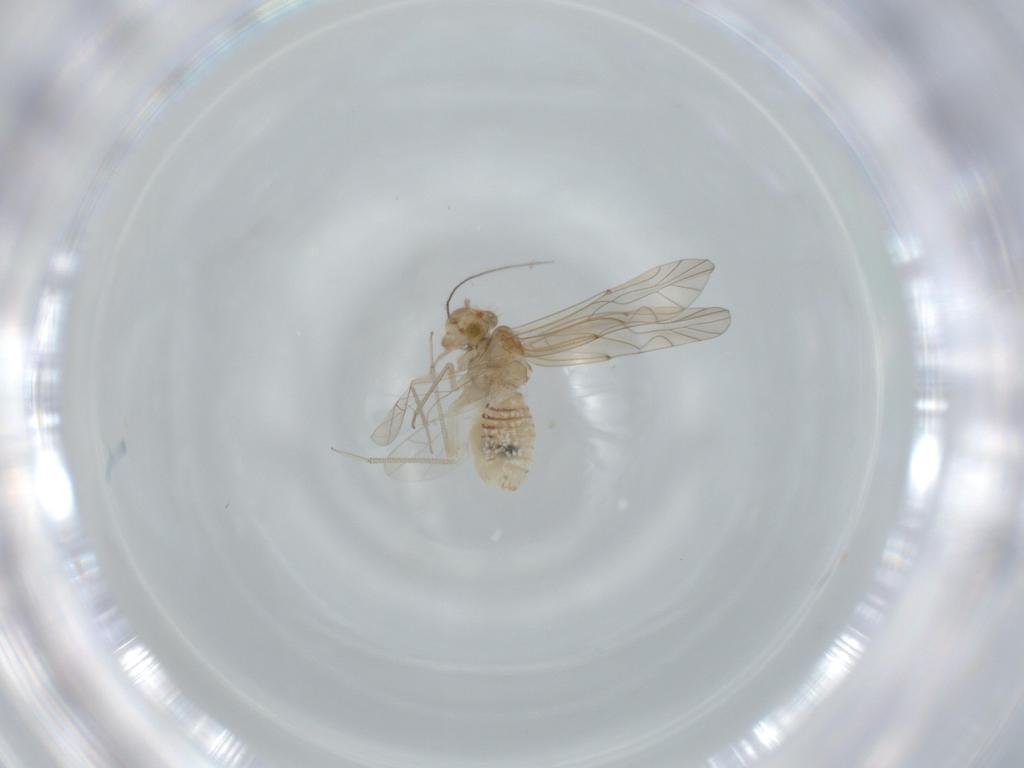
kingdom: Animalia
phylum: Arthropoda
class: Insecta
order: Psocodea
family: Lachesillidae
